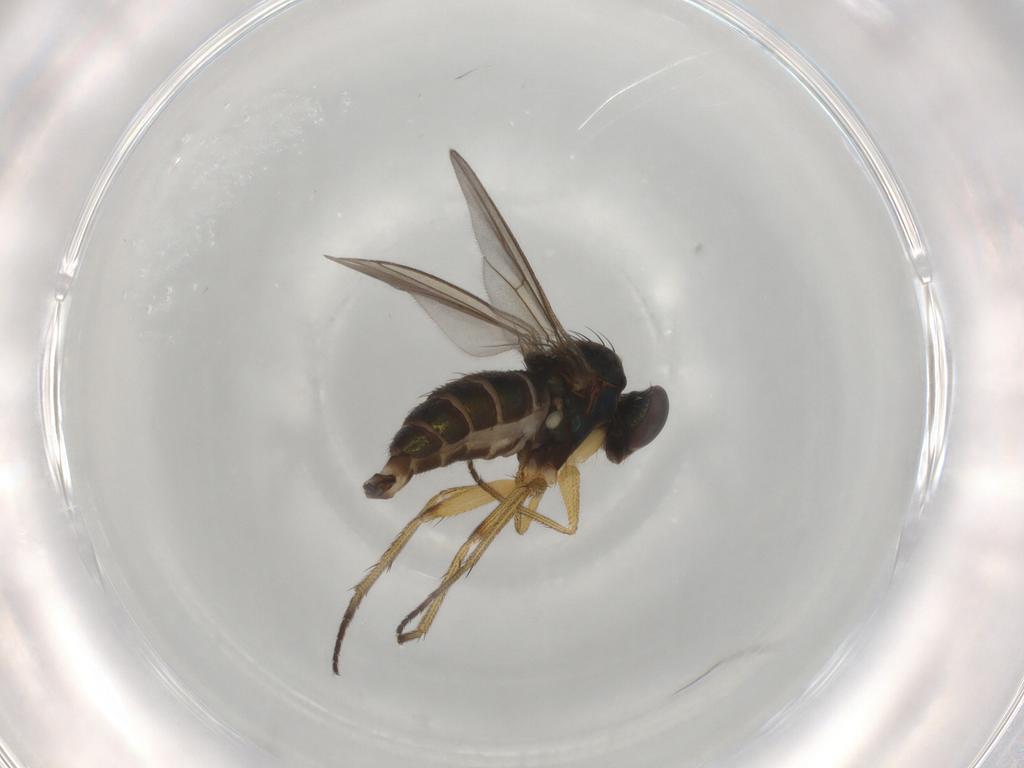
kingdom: Animalia
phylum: Arthropoda
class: Insecta
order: Diptera
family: Dolichopodidae
